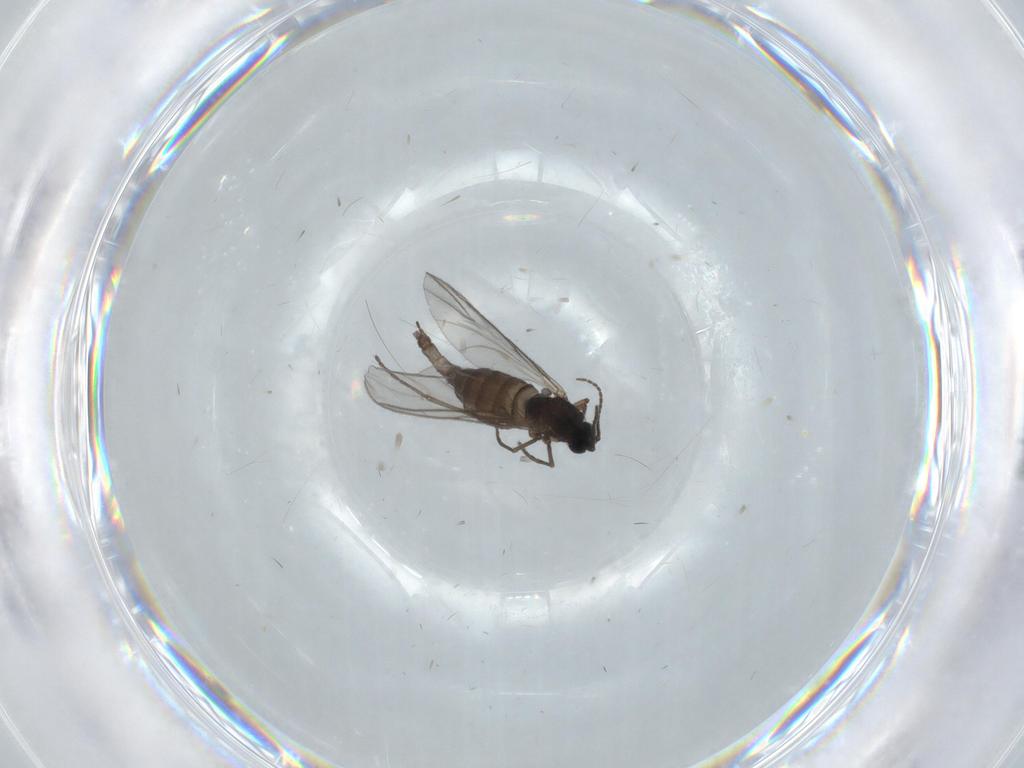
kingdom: Animalia
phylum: Arthropoda
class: Insecta
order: Diptera
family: Sciaridae
